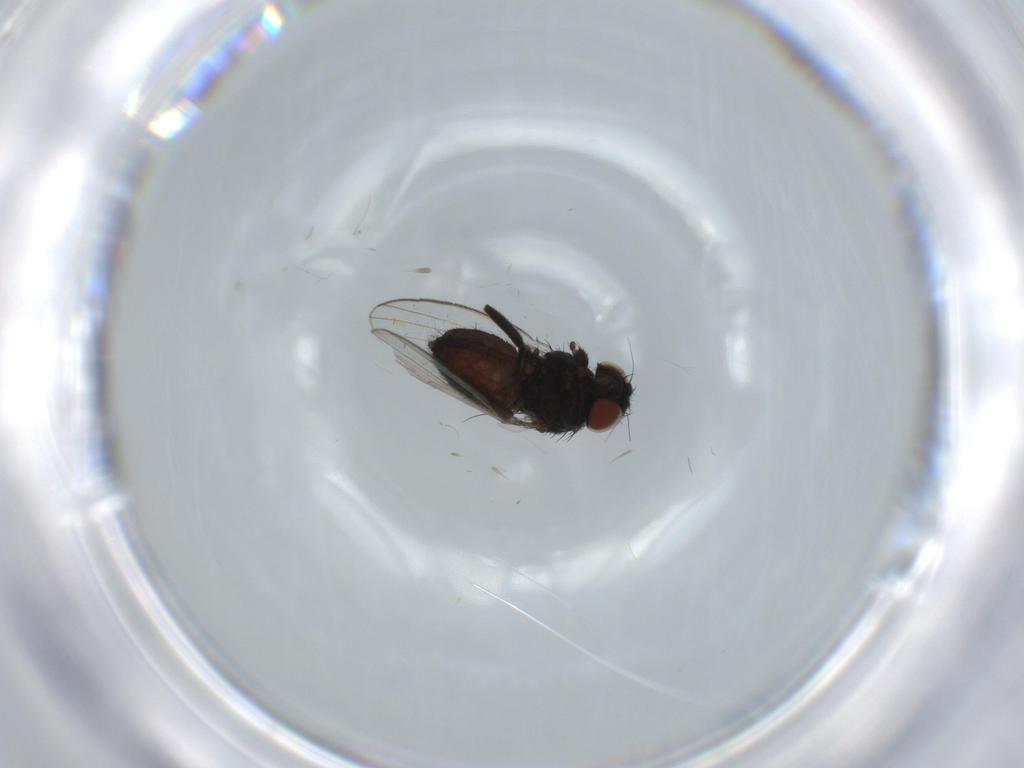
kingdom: Animalia
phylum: Arthropoda
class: Insecta
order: Diptera
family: Milichiidae
